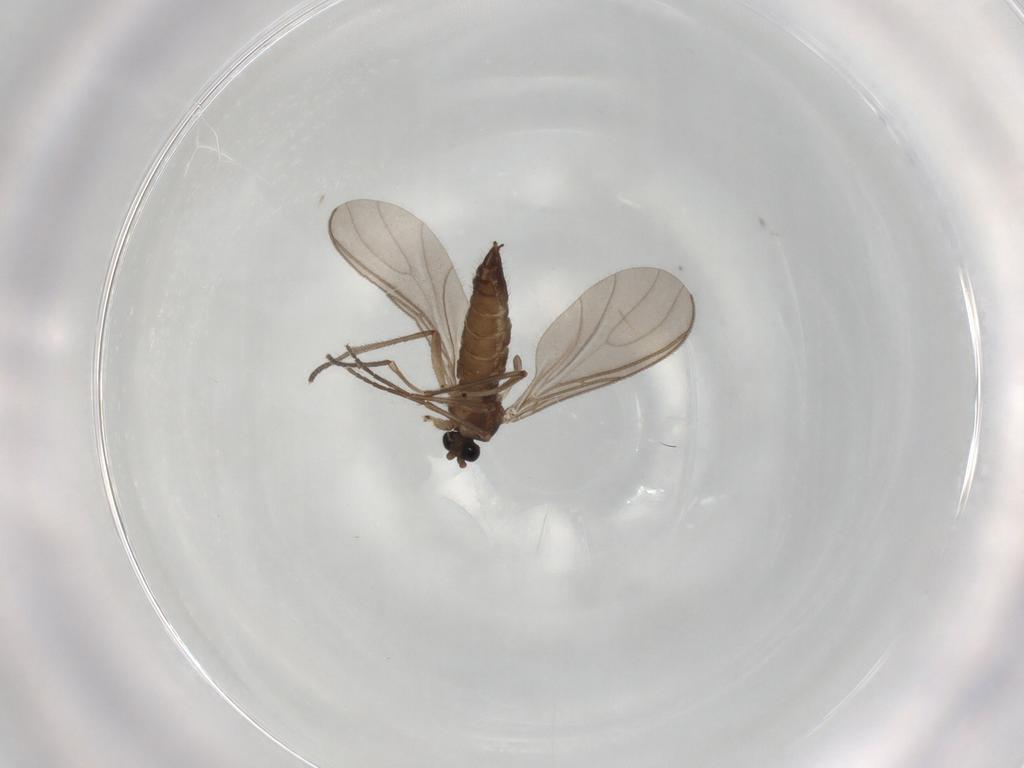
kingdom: Animalia
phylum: Arthropoda
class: Insecta
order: Diptera
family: Sciaridae
